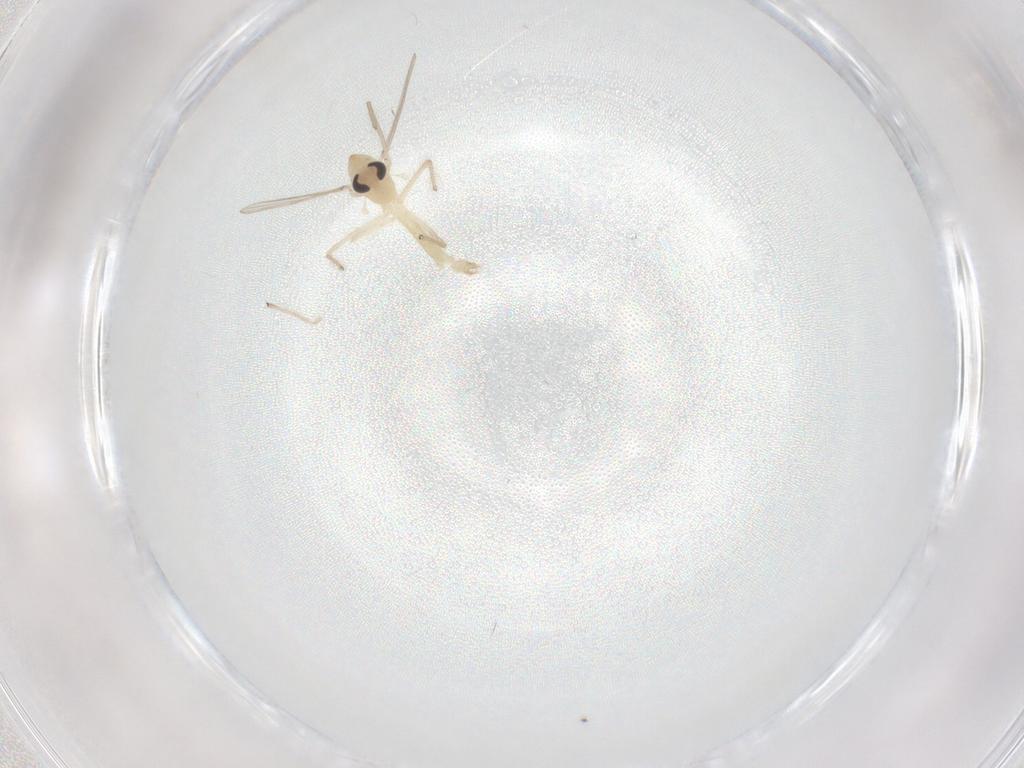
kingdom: Animalia
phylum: Arthropoda
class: Insecta
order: Diptera
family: Chironomidae
